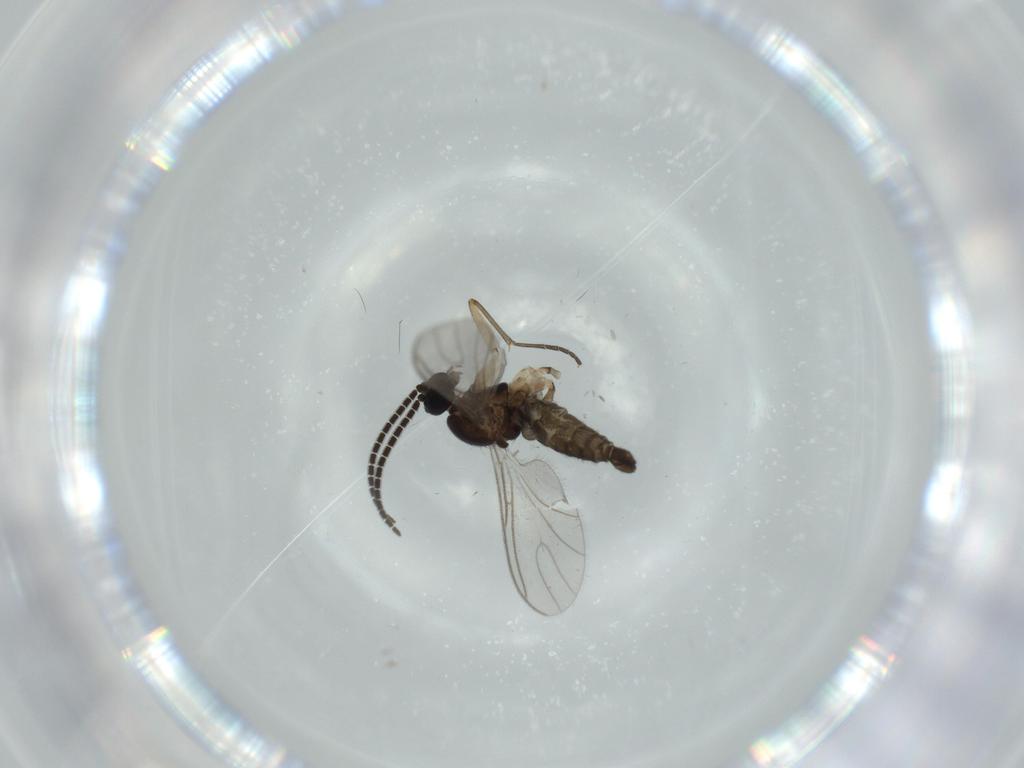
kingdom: Animalia
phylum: Arthropoda
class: Insecta
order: Diptera
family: Sciaridae
